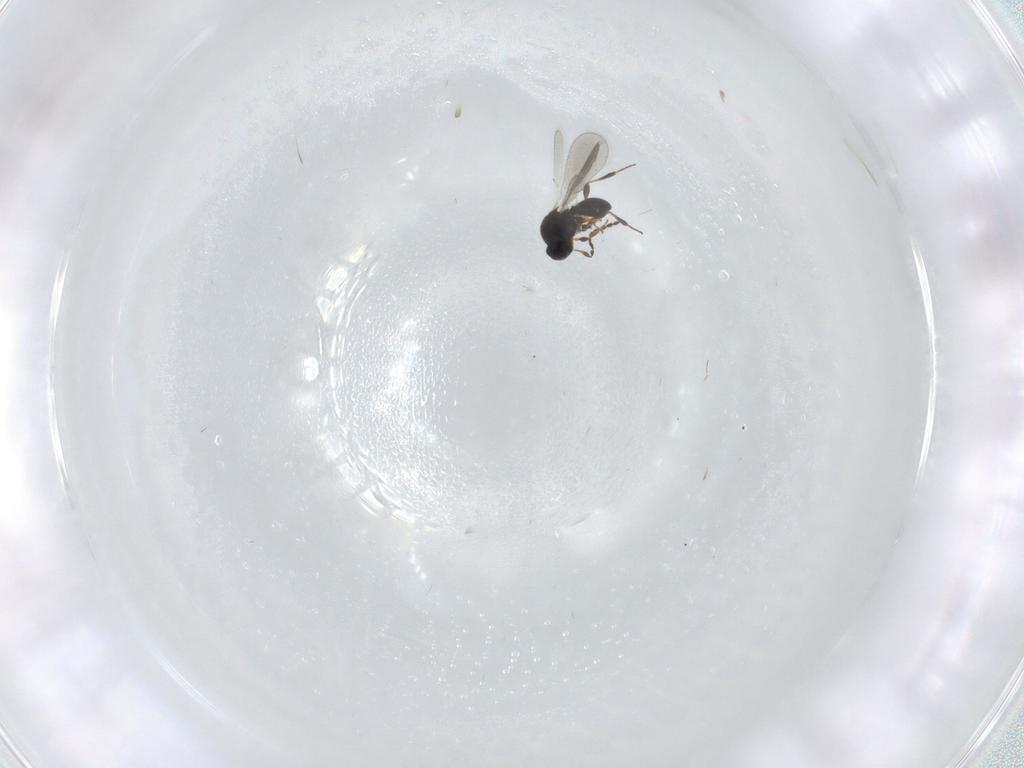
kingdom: Animalia
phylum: Arthropoda
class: Insecta
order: Hymenoptera
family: Platygastridae
